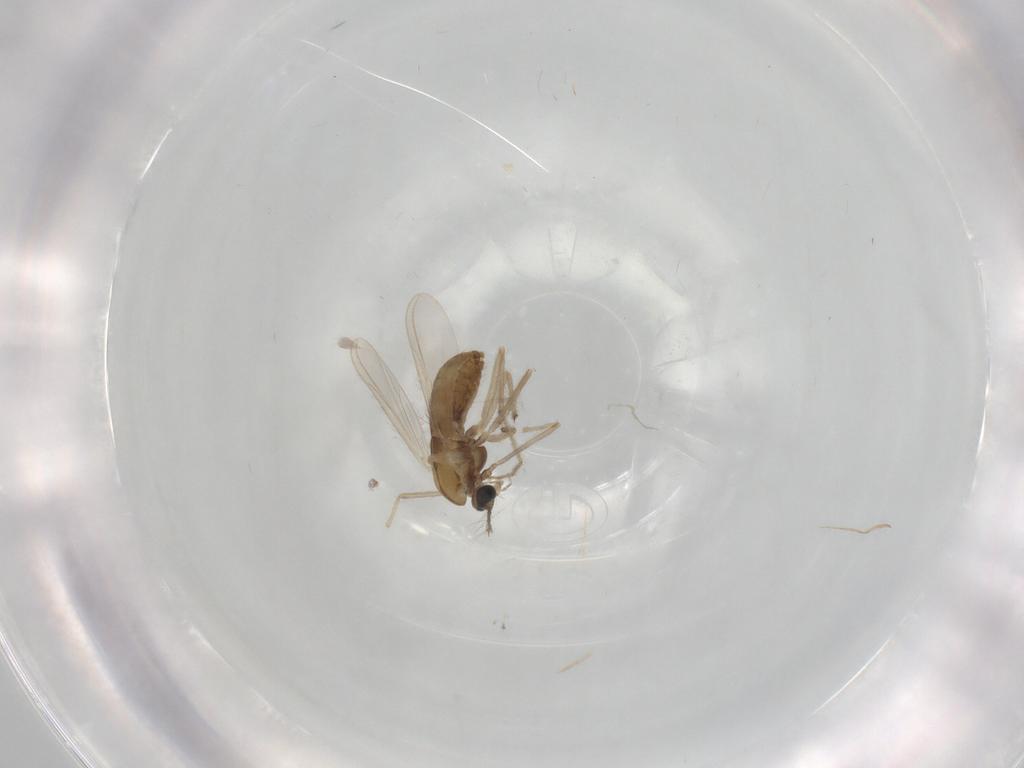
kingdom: Animalia
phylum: Arthropoda
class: Insecta
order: Diptera
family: Chironomidae
